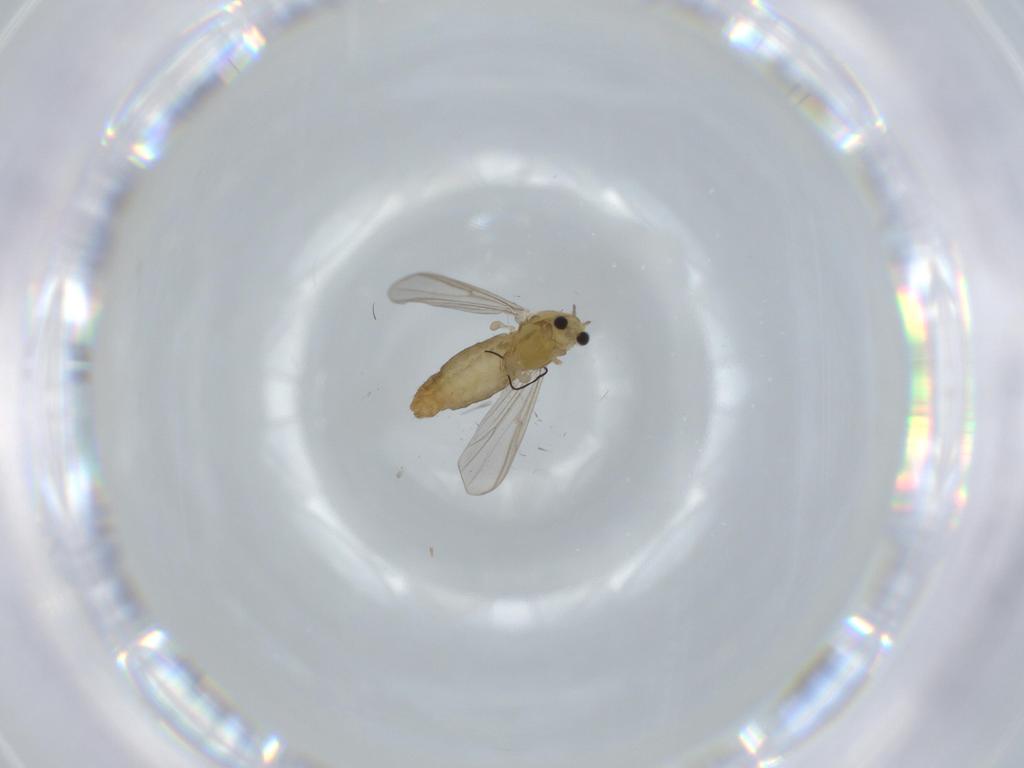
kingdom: Animalia
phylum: Arthropoda
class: Insecta
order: Diptera
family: Chironomidae
